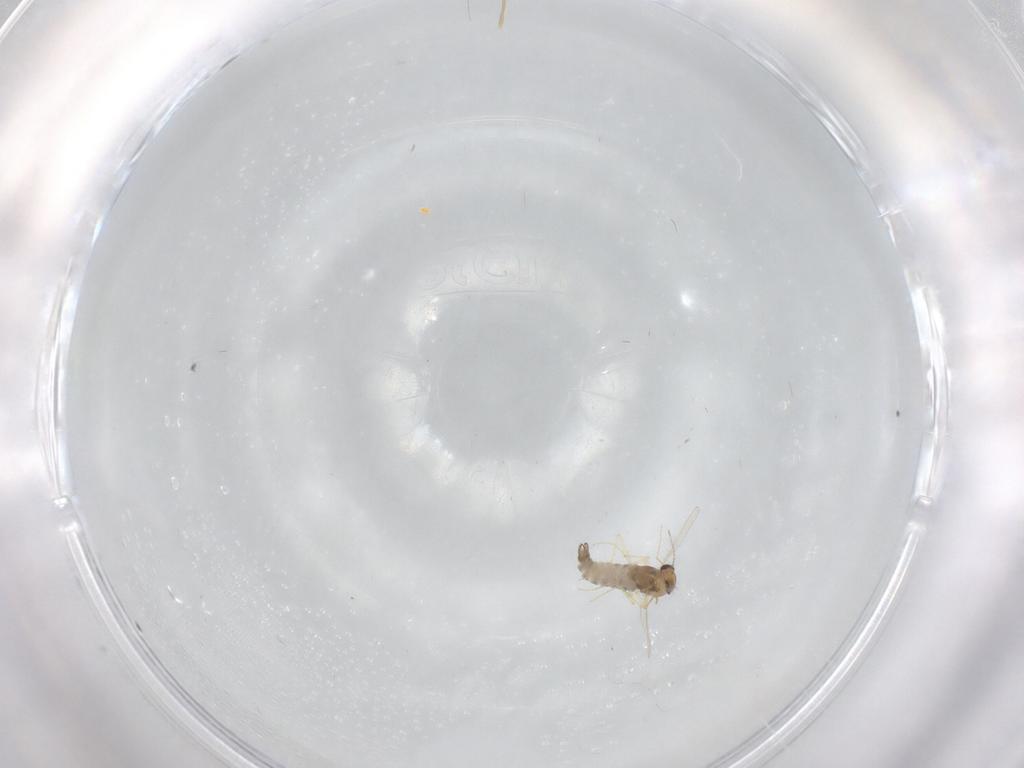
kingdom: Animalia
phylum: Arthropoda
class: Insecta
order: Diptera
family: Chironomidae
